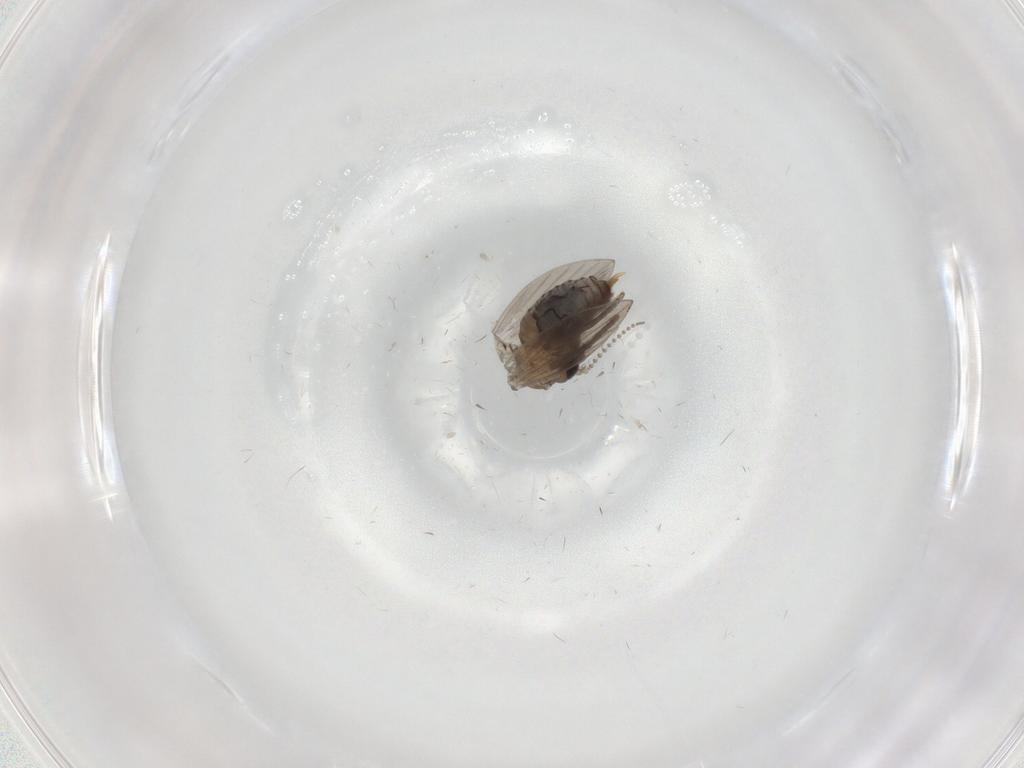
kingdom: Animalia
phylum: Arthropoda
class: Insecta
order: Diptera
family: Psychodidae
